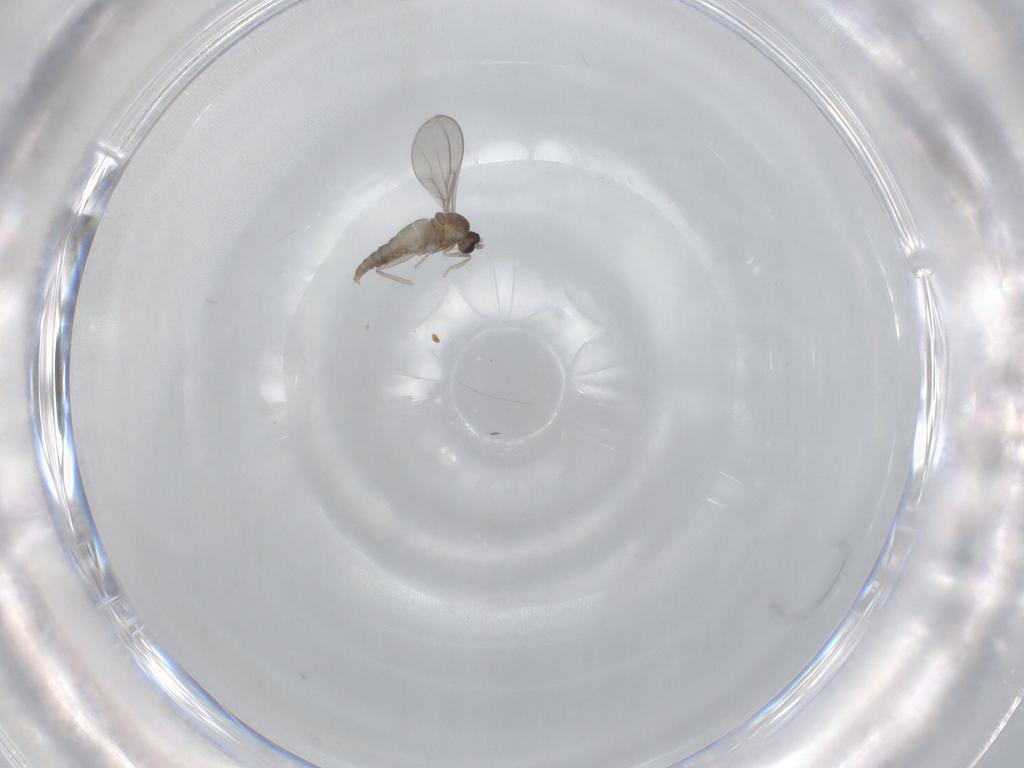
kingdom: Animalia
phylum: Arthropoda
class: Insecta
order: Diptera
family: Cecidomyiidae
